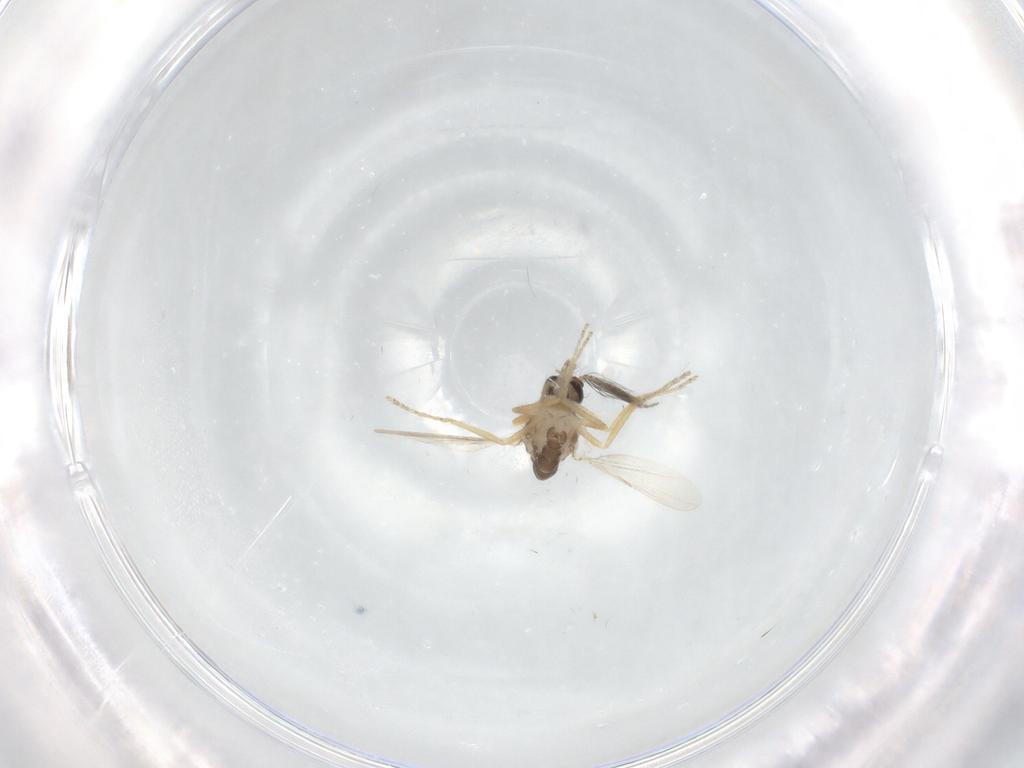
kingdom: Animalia
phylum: Arthropoda
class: Insecta
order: Diptera
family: Ceratopogonidae
